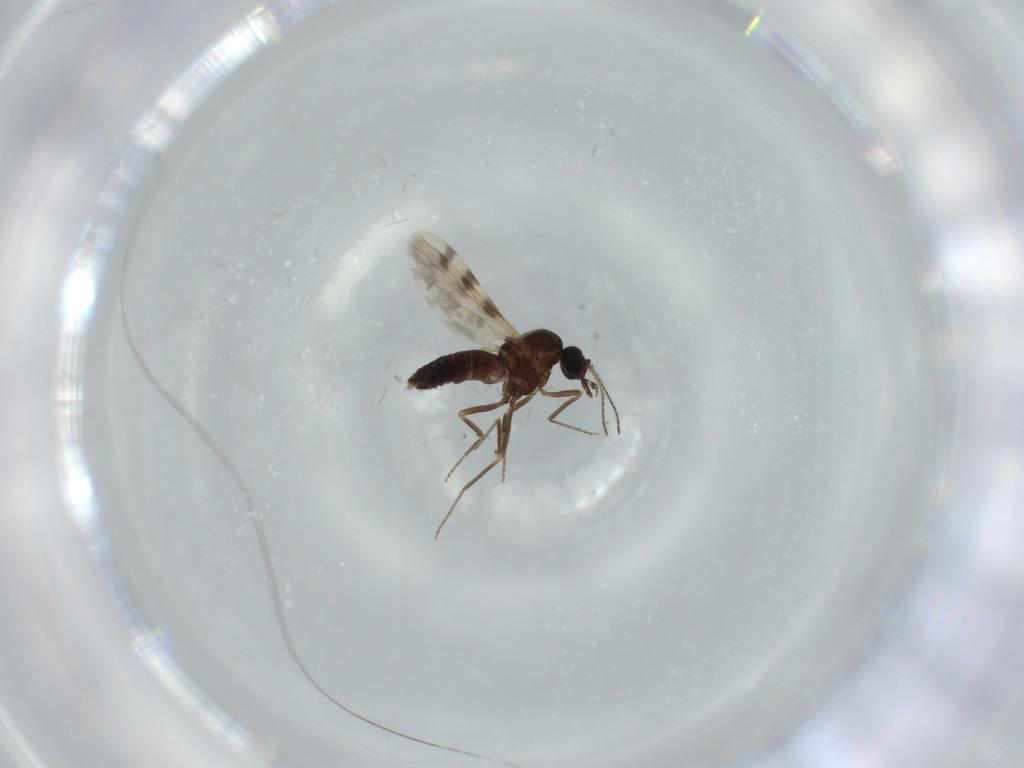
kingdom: Animalia
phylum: Arthropoda
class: Insecta
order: Diptera
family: Ceratopogonidae
